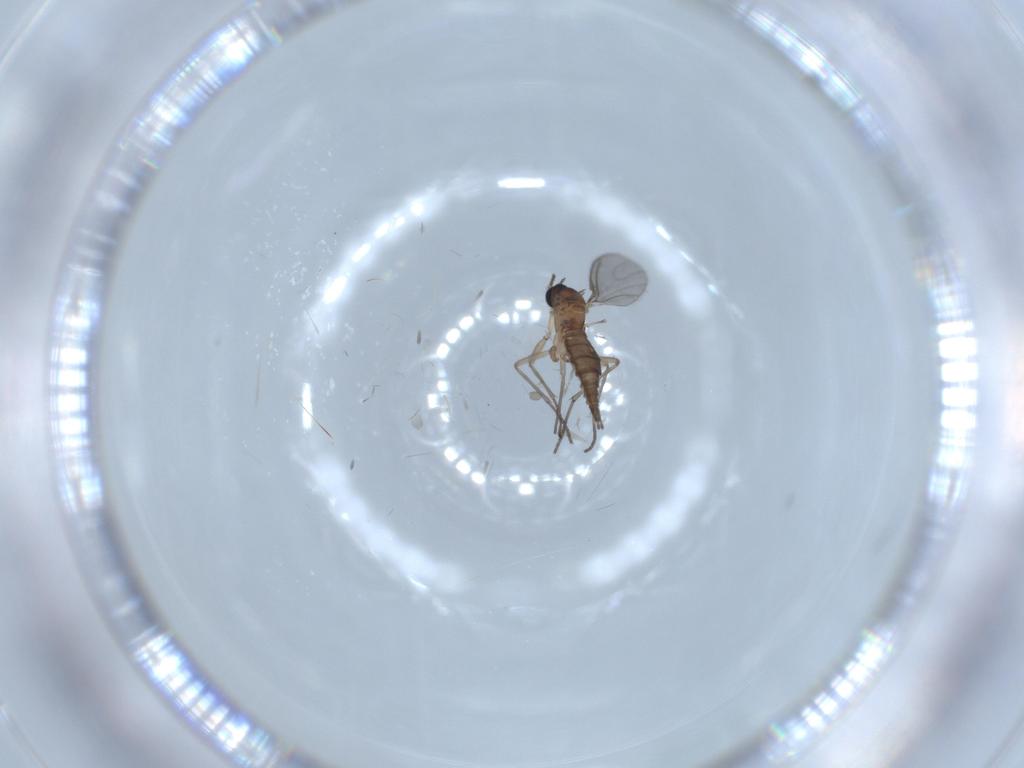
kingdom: Animalia
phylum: Arthropoda
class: Insecta
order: Diptera
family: Sciaridae
